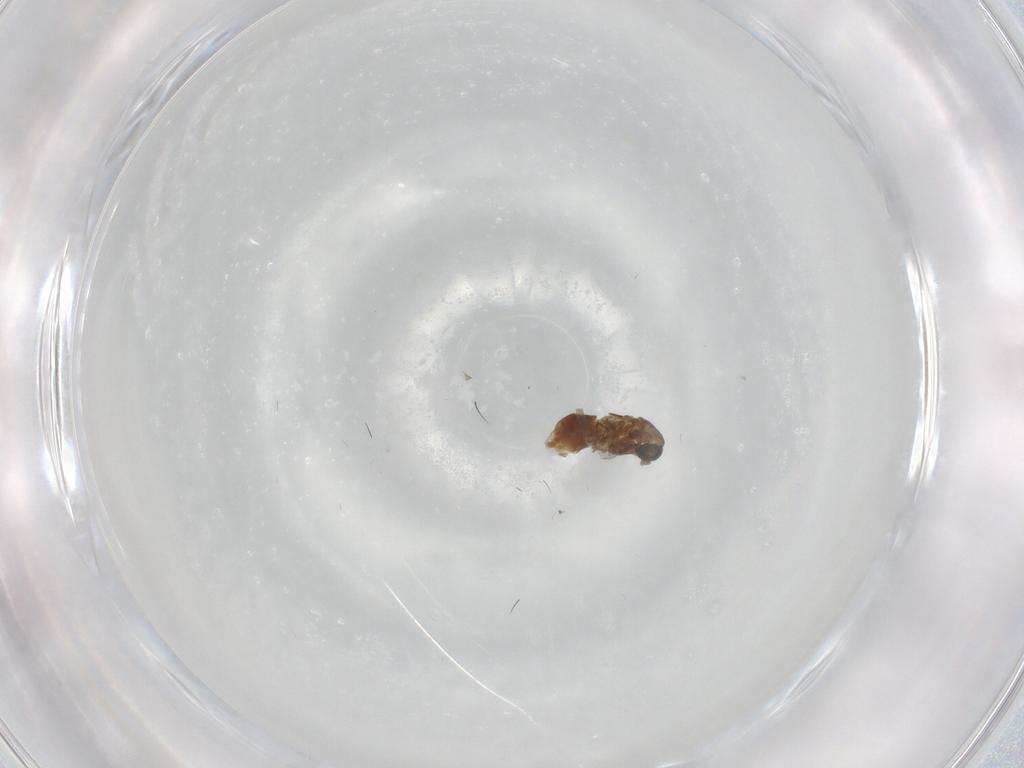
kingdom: Animalia
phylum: Arthropoda
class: Insecta
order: Diptera
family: Chironomidae
